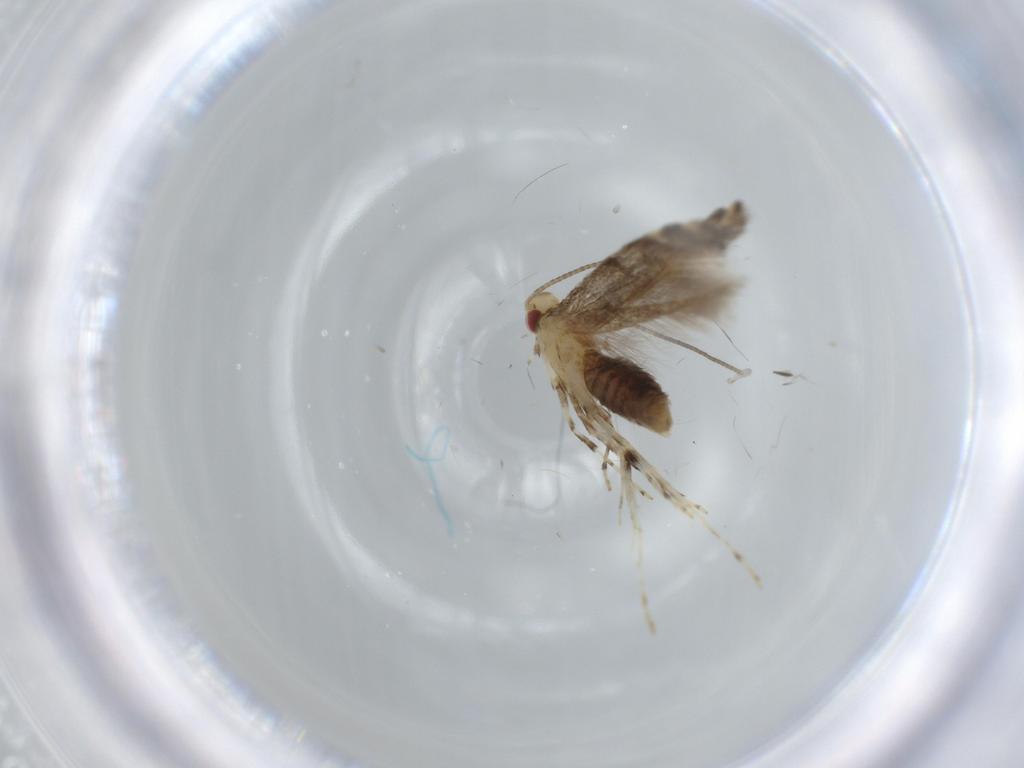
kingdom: Animalia
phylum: Arthropoda
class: Insecta
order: Lepidoptera
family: Gracillariidae
